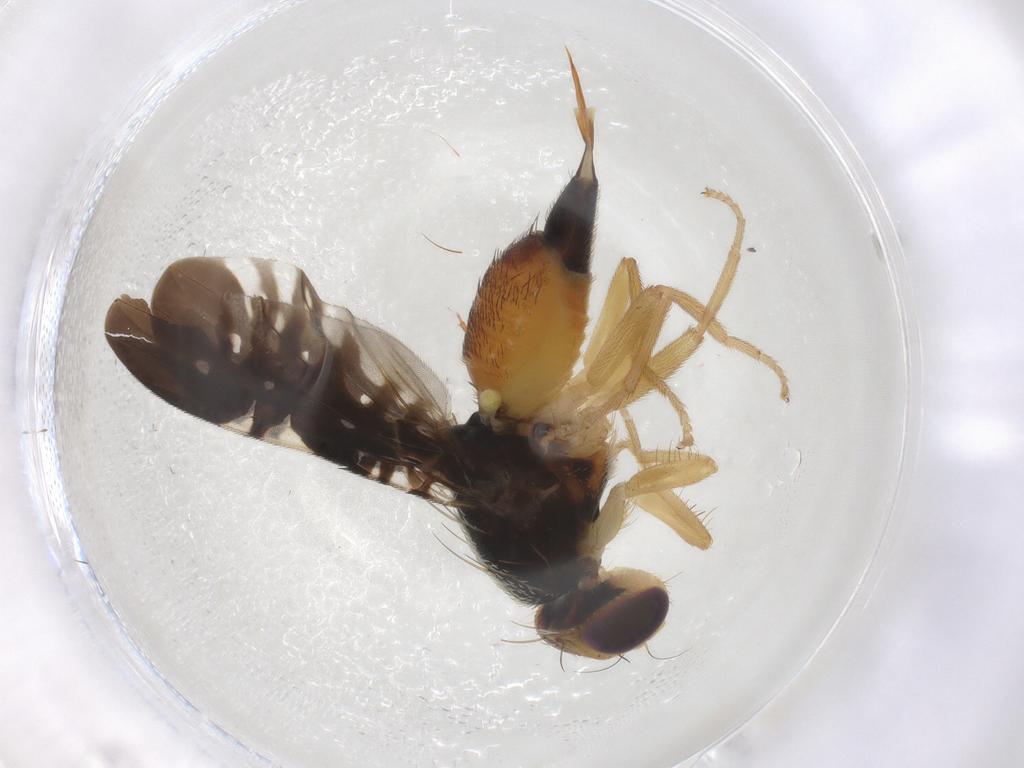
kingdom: Animalia
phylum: Arthropoda
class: Insecta
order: Diptera
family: Tephritidae
